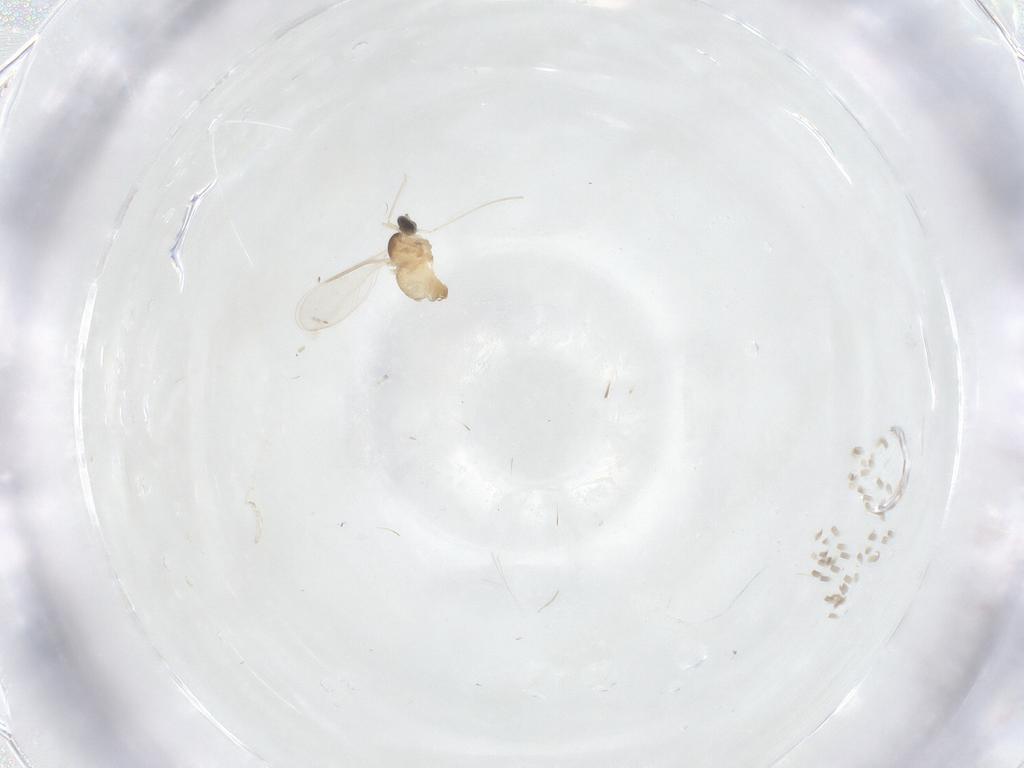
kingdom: Animalia
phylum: Arthropoda
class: Insecta
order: Diptera
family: Cecidomyiidae
